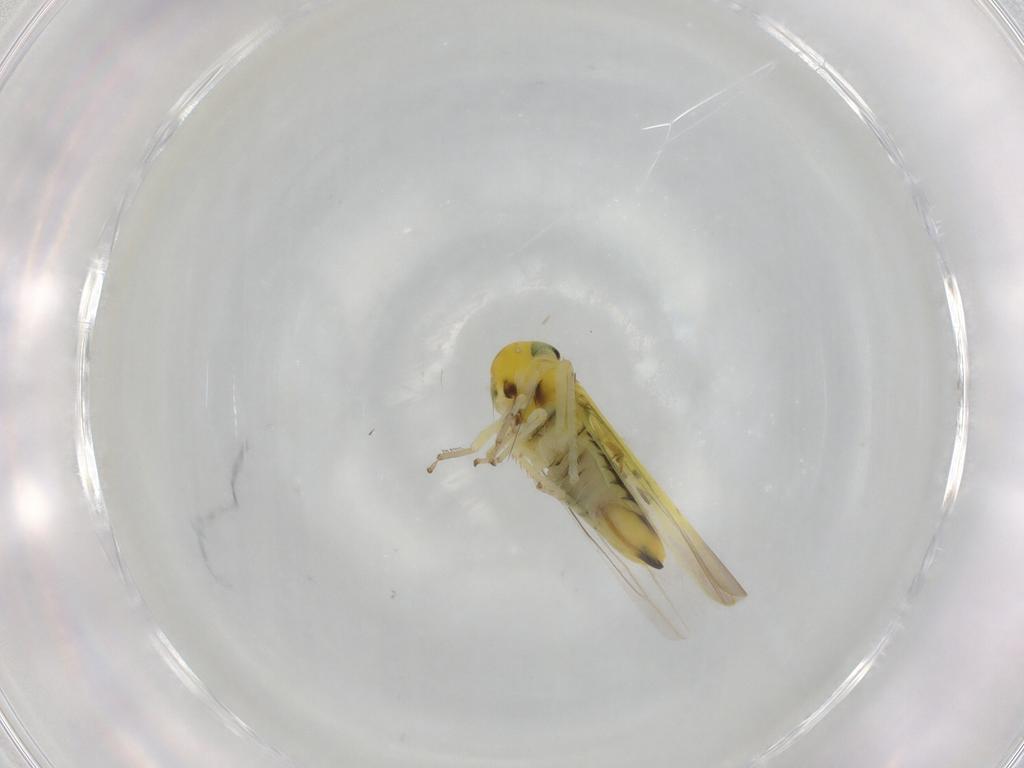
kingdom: Animalia
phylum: Arthropoda
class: Insecta
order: Hemiptera
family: Cicadellidae
